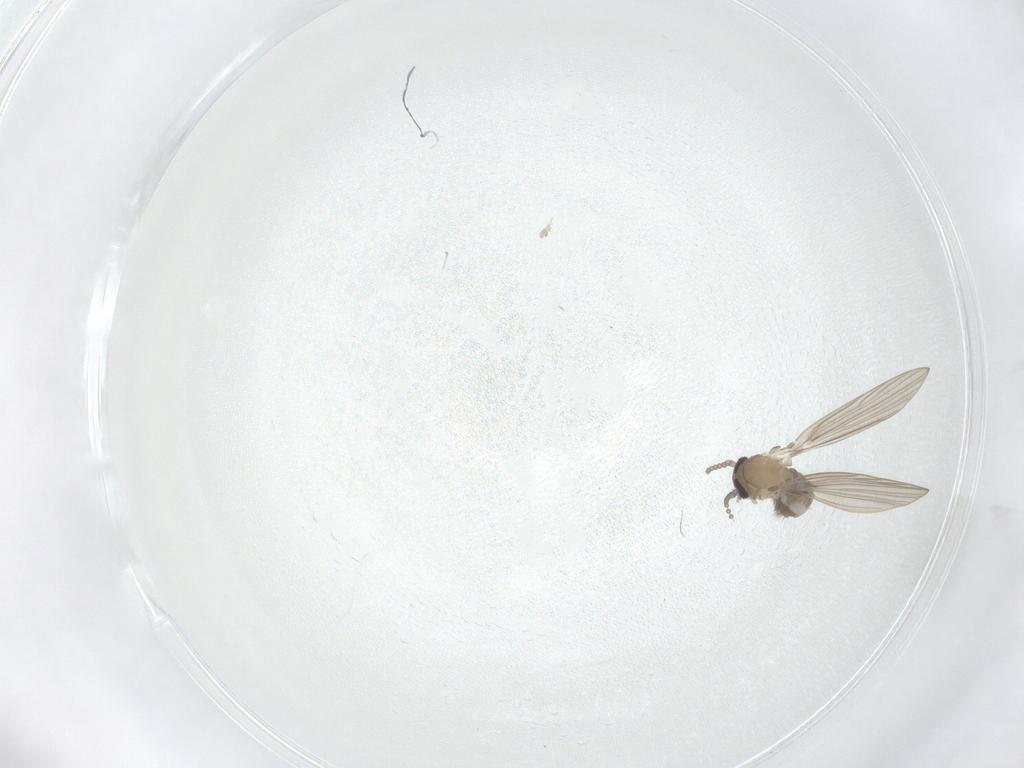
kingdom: Animalia
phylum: Arthropoda
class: Insecta
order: Diptera
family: Psychodidae
